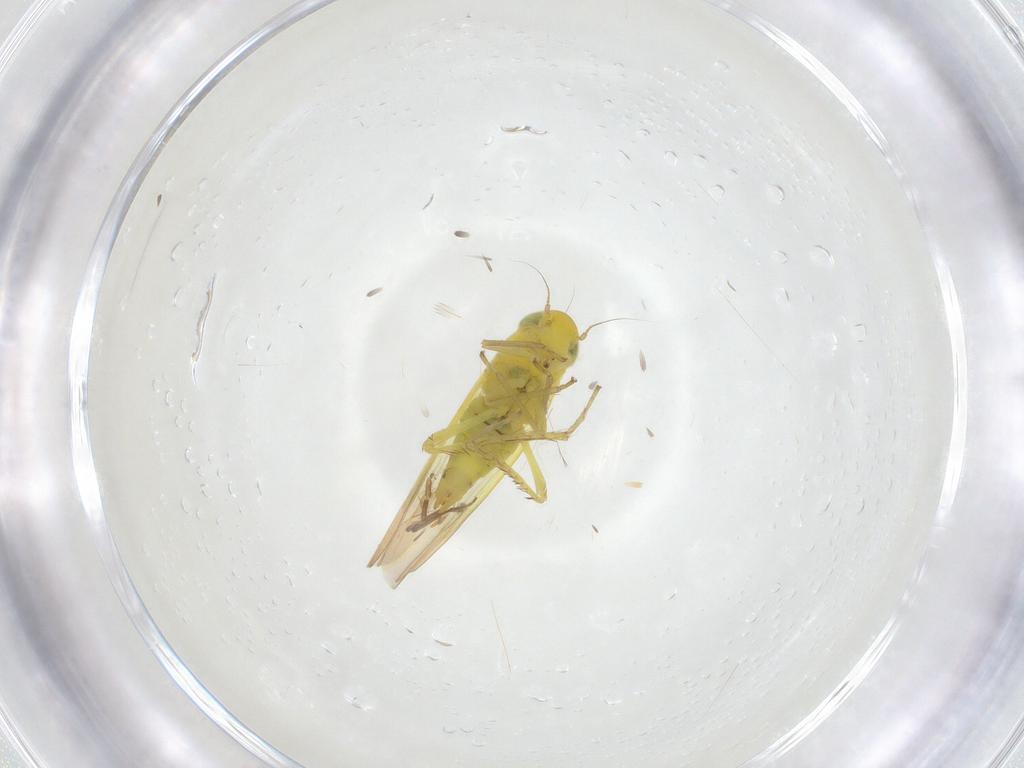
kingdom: Animalia
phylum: Arthropoda
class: Insecta
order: Hemiptera
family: Cicadellidae
